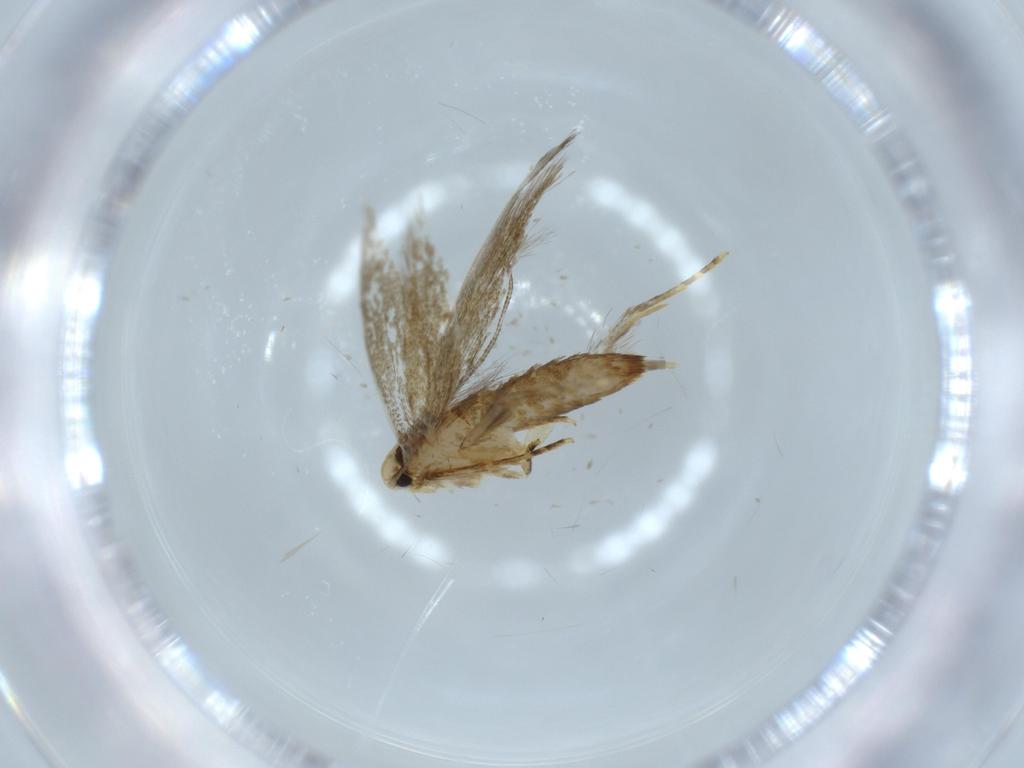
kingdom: Animalia
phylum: Arthropoda
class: Insecta
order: Lepidoptera
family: Tineidae
